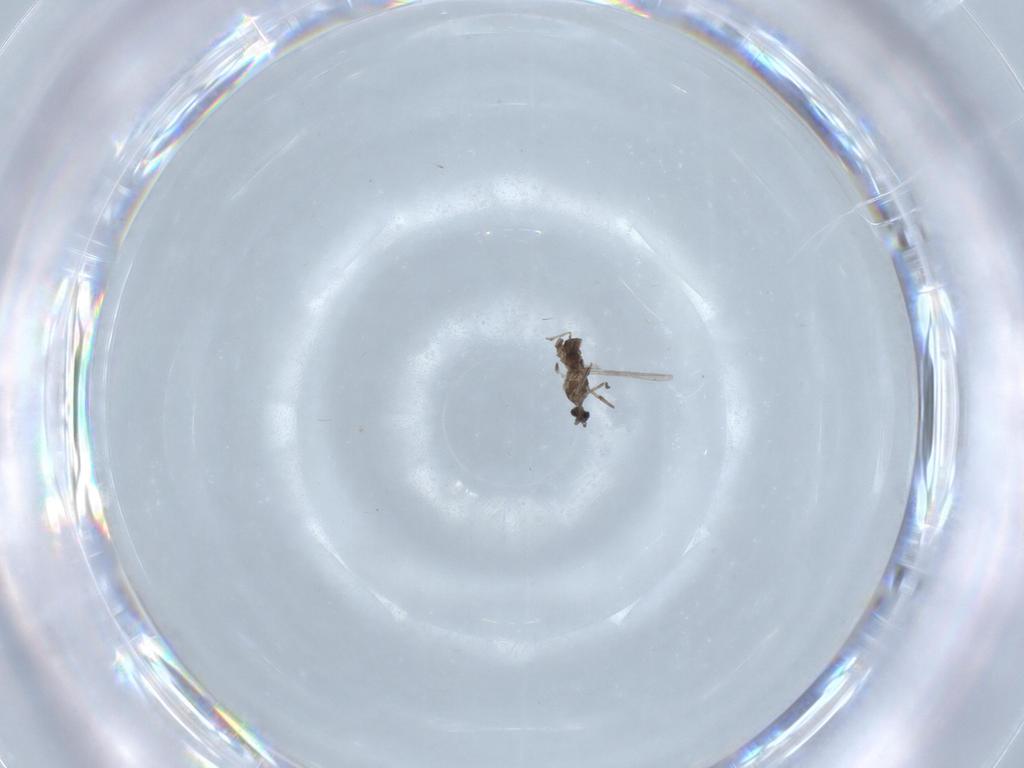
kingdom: Animalia
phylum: Arthropoda
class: Insecta
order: Diptera
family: Cecidomyiidae
